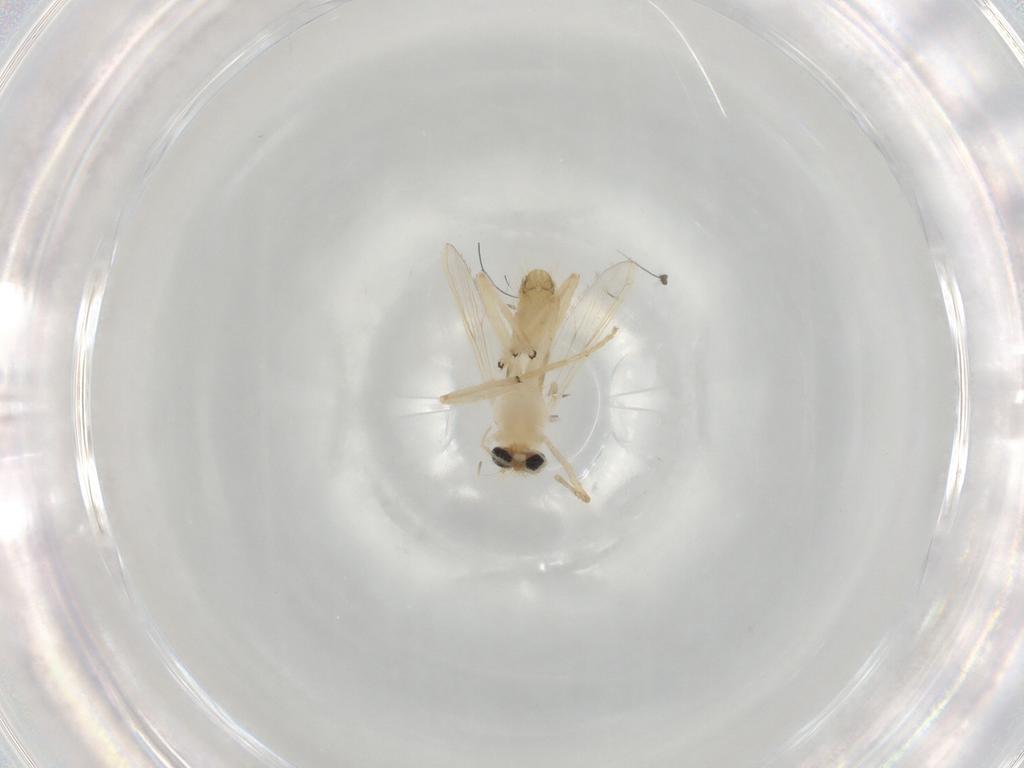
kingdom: Animalia
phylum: Arthropoda
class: Insecta
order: Diptera
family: Chironomidae
